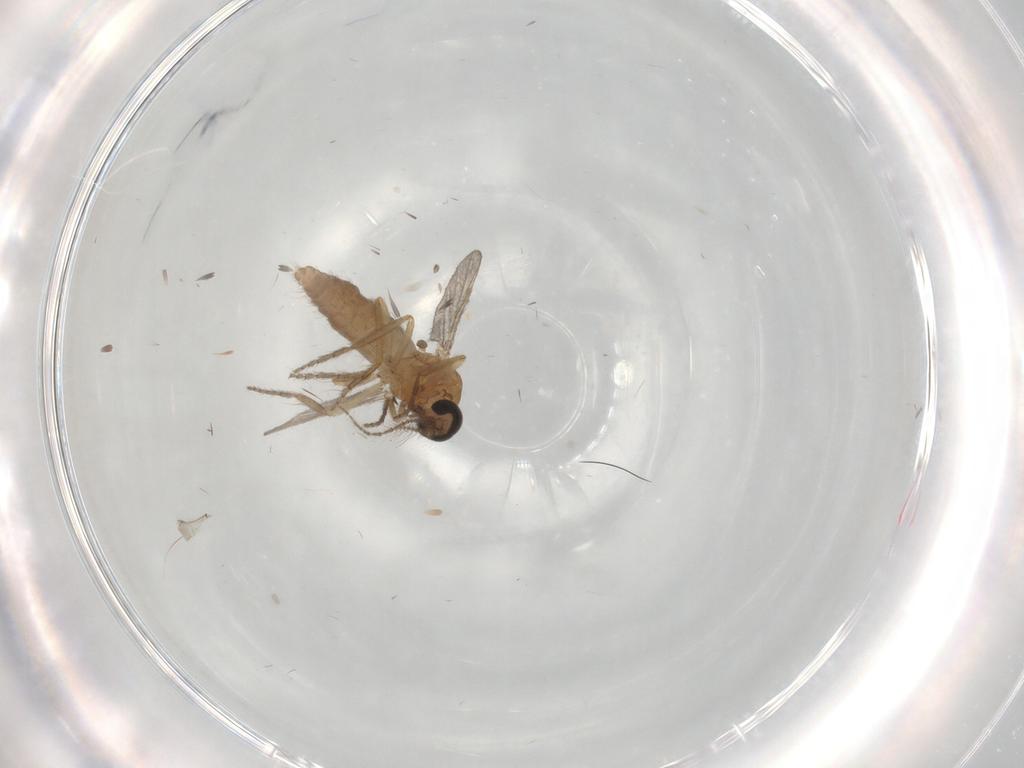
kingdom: Animalia
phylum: Arthropoda
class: Insecta
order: Diptera
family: Ceratopogonidae
